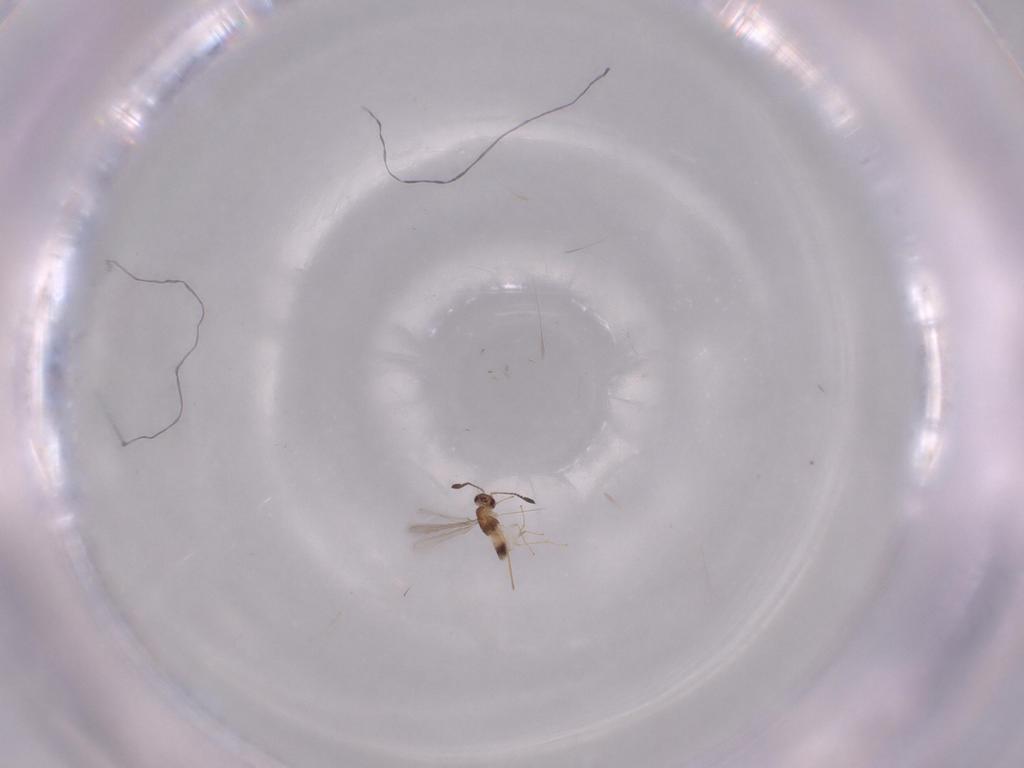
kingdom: Animalia
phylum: Arthropoda
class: Insecta
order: Hymenoptera
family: Mymaridae
